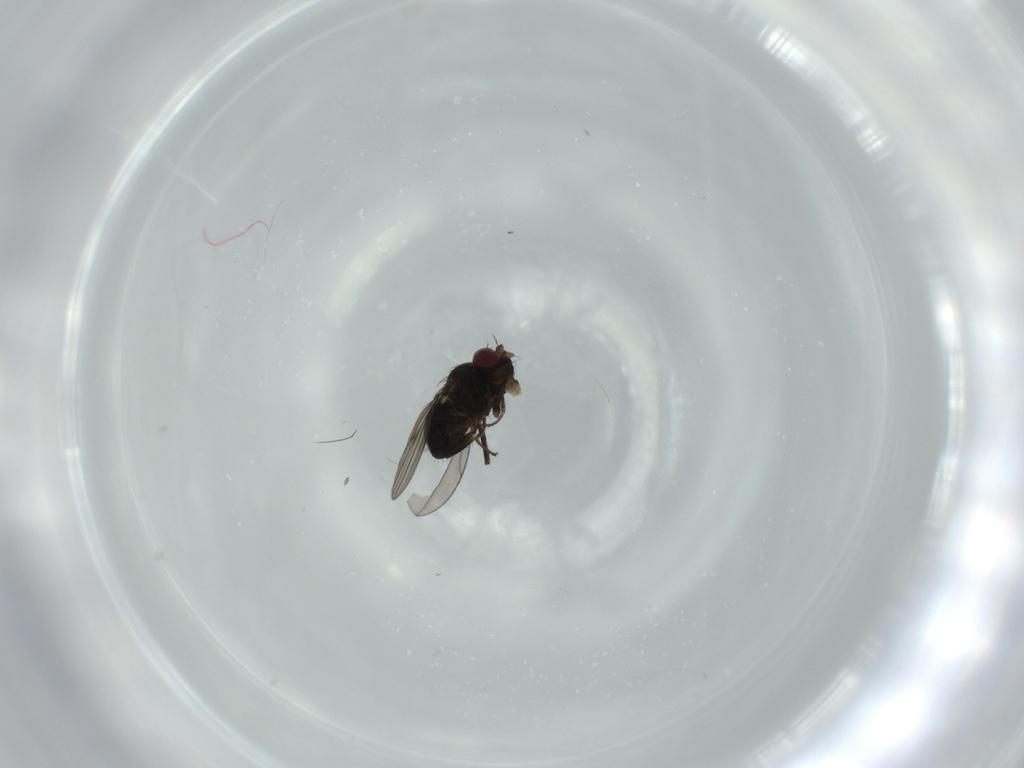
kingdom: Animalia
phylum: Arthropoda
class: Insecta
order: Diptera
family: Ephydridae
